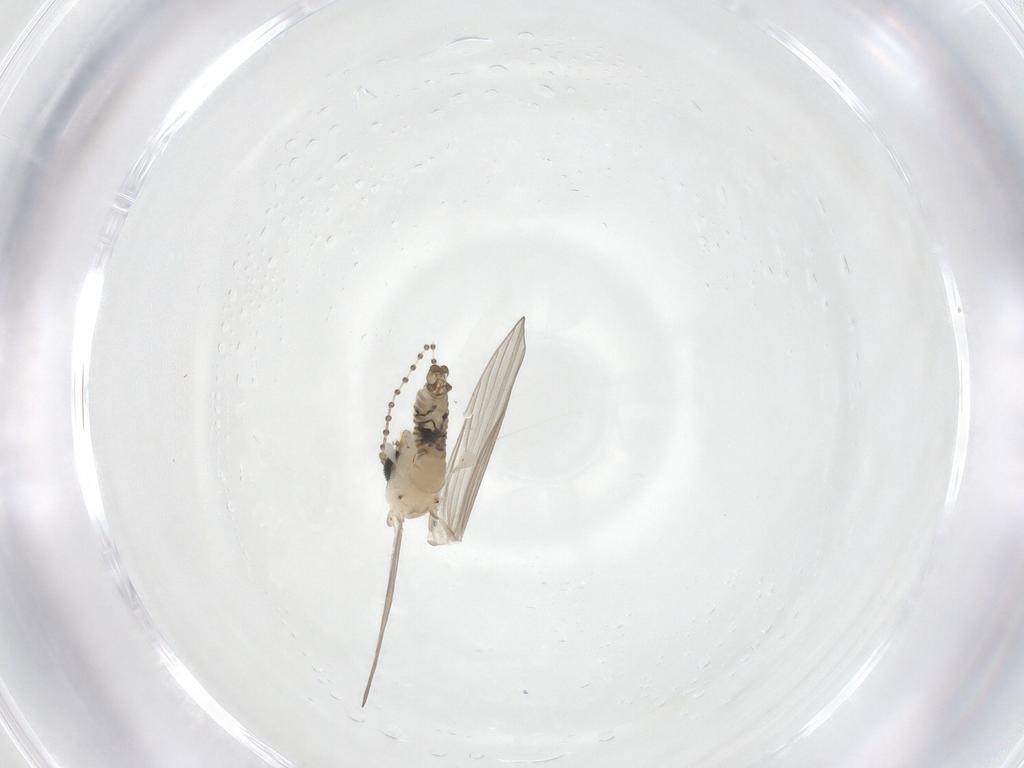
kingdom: Animalia
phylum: Arthropoda
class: Insecta
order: Diptera
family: Psychodidae
